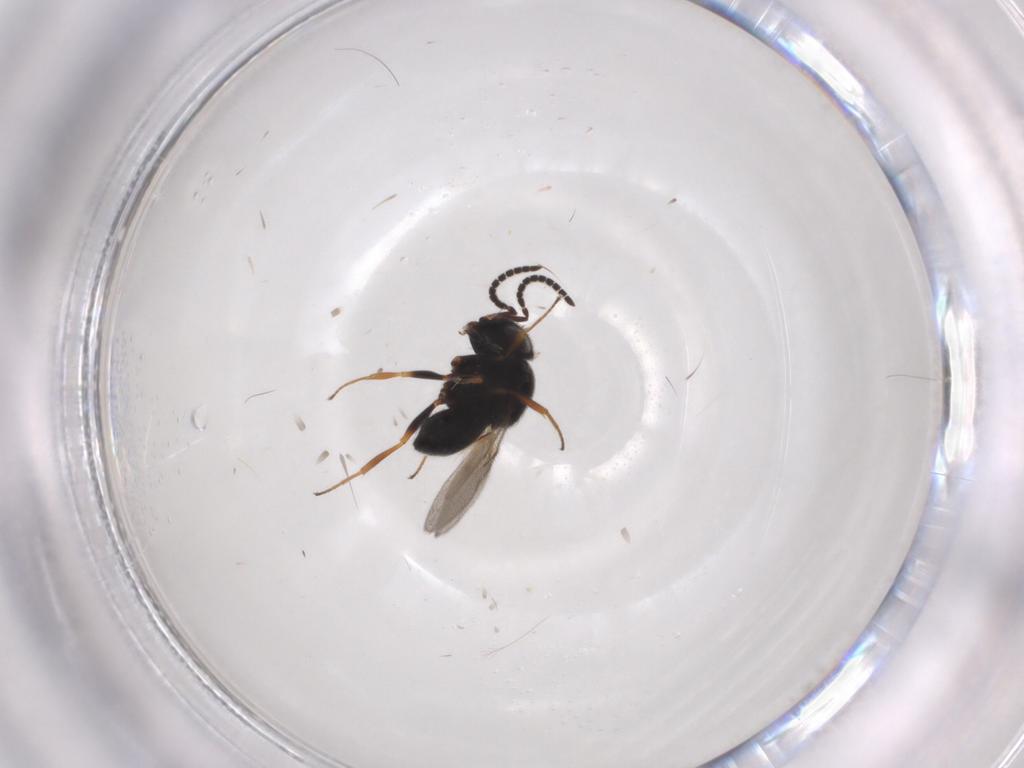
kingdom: Animalia
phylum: Arthropoda
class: Insecta
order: Hymenoptera
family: Scelionidae
